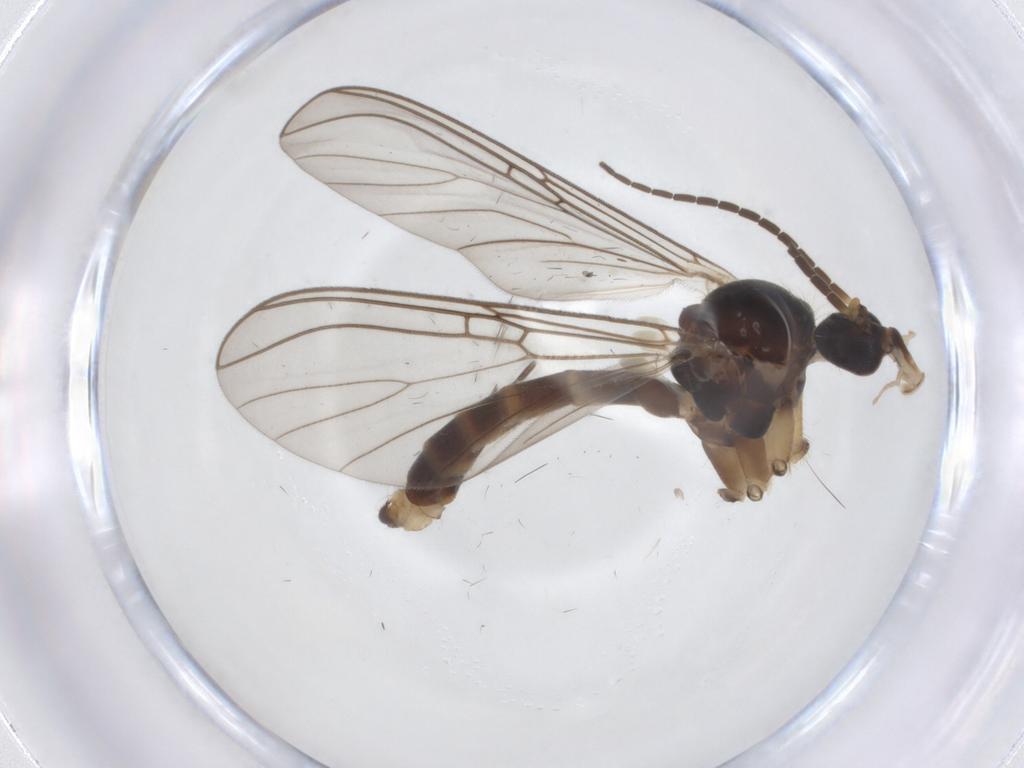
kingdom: Animalia
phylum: Arthropoda
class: Insecta
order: Diptera
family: Mycetophilidae
